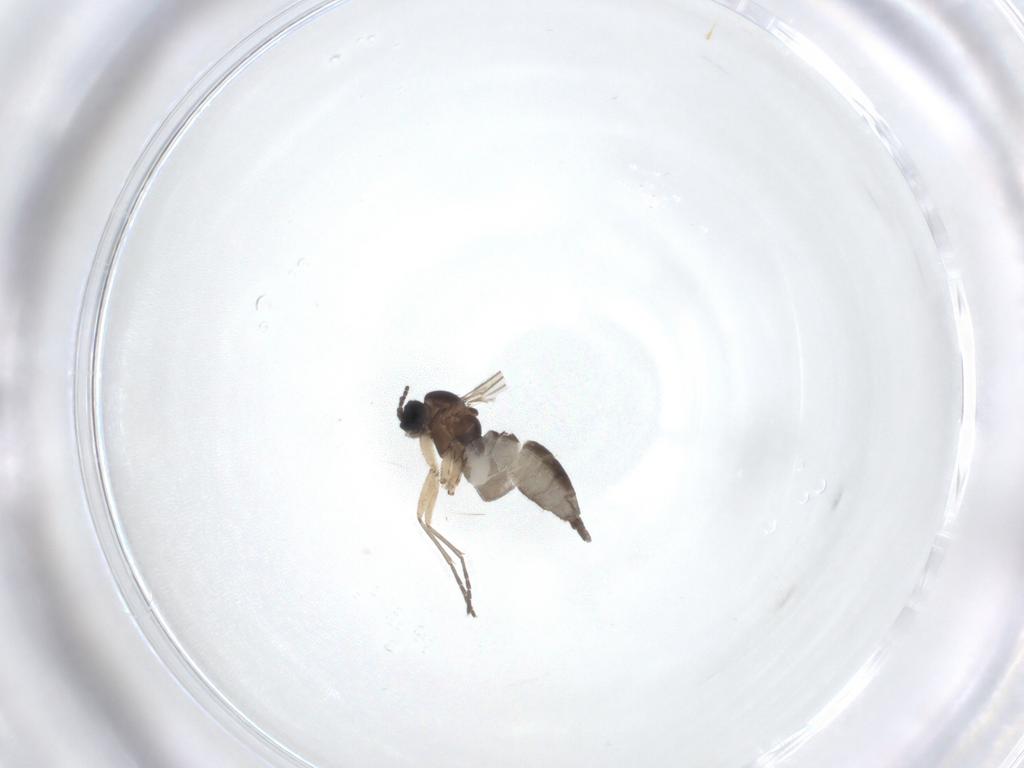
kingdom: Animalia
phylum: Arthropoda
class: Insecta
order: Diptera
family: Sciaridae
